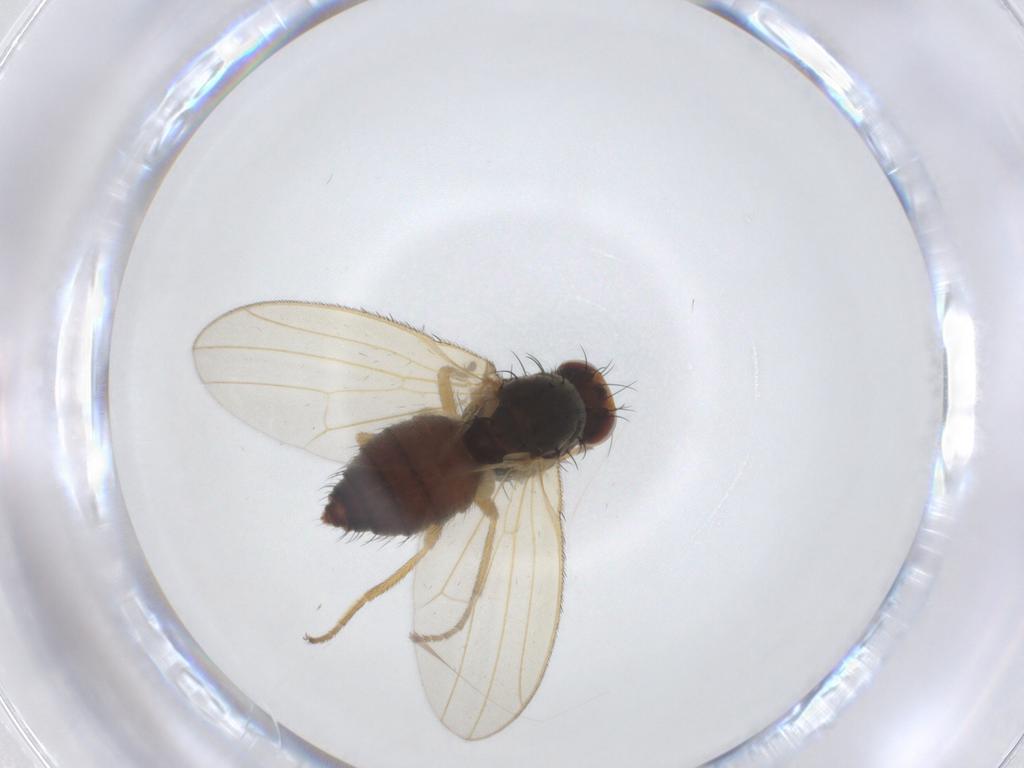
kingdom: Animalia
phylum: Arthropoda
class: Insecta
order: Diptera
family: Heleomyzidae
